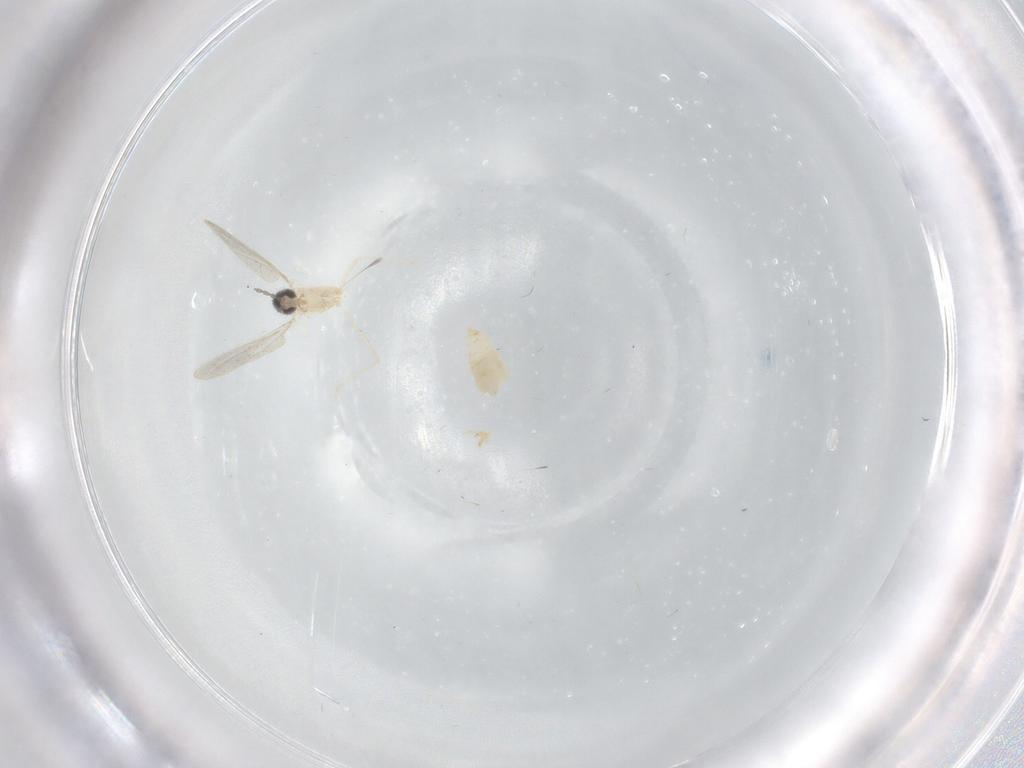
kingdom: Animalia
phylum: Arthropoda
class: Insecta
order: Diptera
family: Cecidomyiidae
